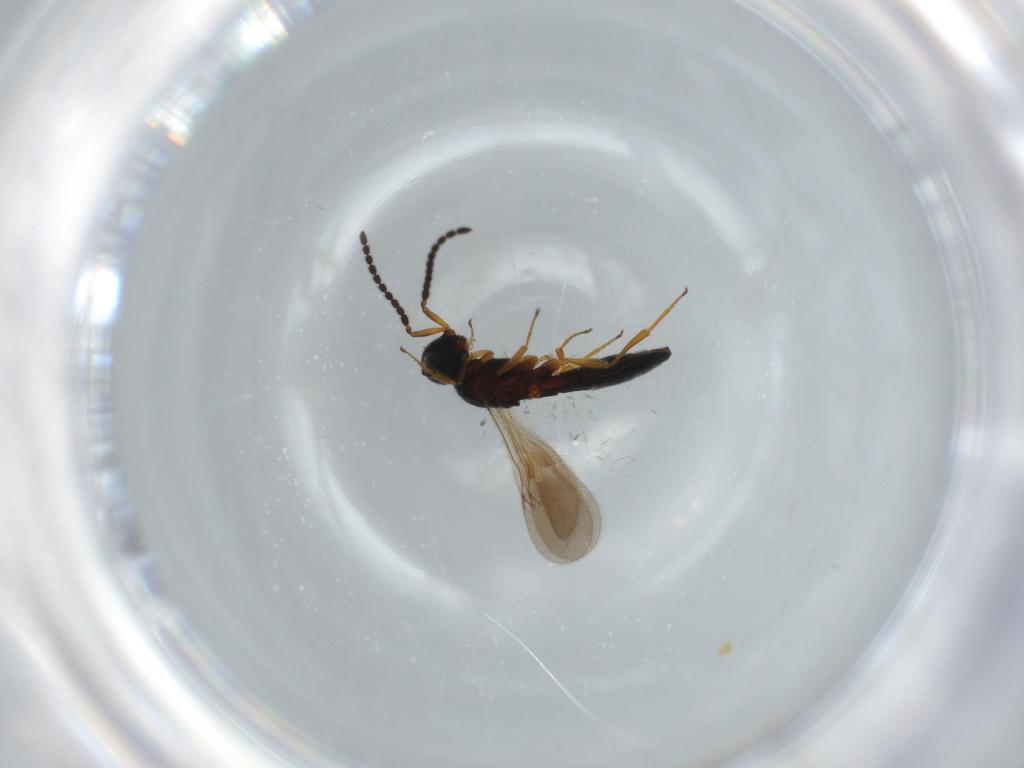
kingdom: Animalia
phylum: Arthropoda
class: Insecta
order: Hymenoptera
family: Scelionidae
